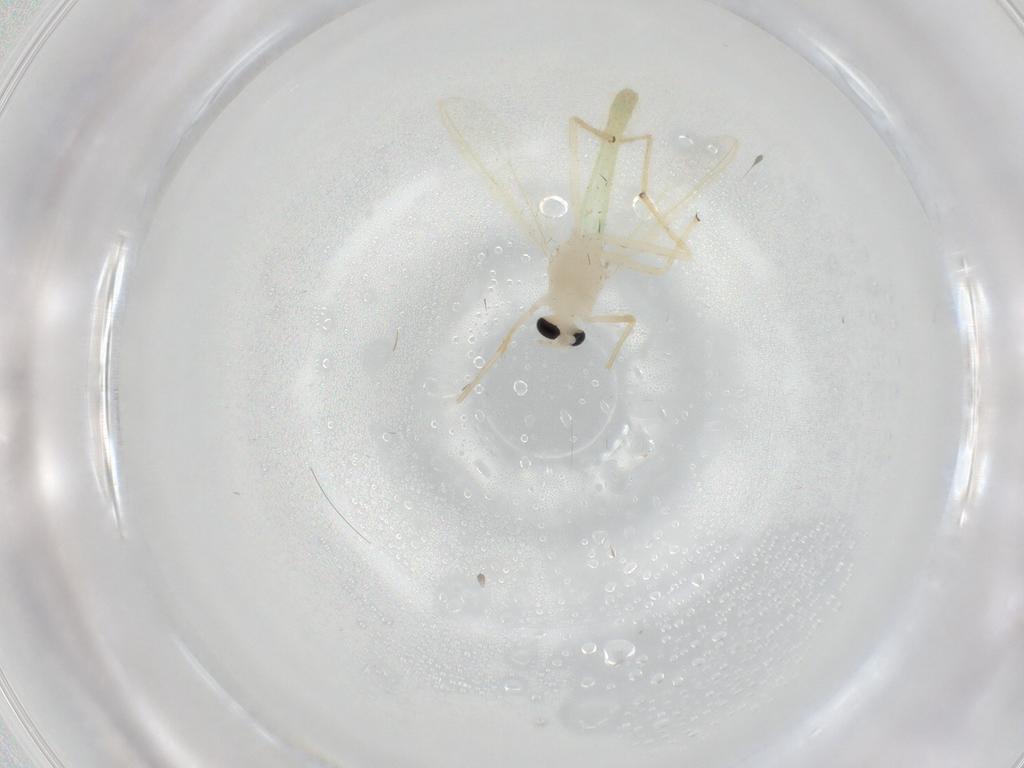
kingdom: Animalia
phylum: Arthropoda
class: Insecta
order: Diptera
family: Chironomidae
